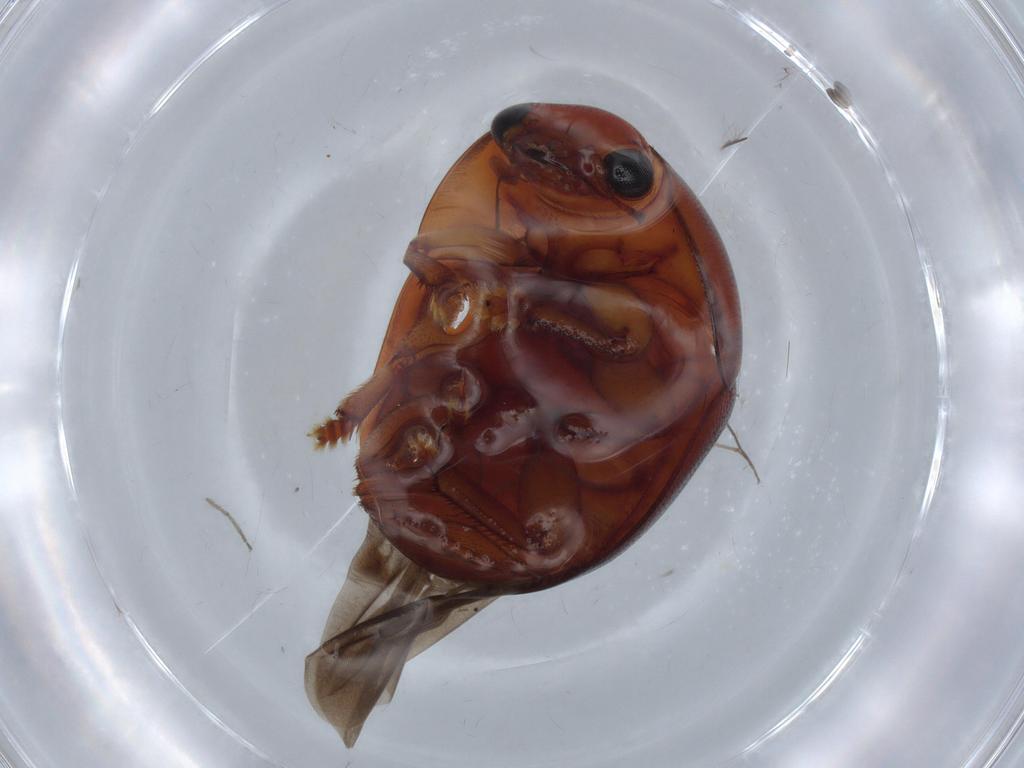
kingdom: Animalia
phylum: Arthropoda
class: Insecta
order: Coleoptera
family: Nitidulidae
